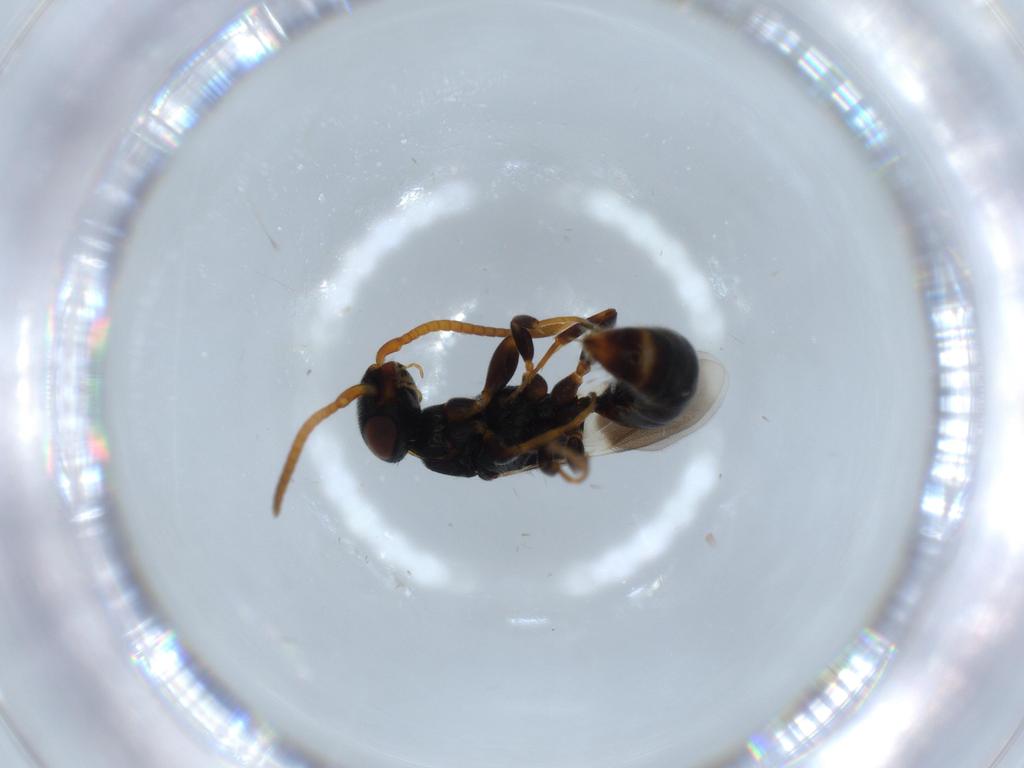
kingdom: Animalia
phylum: Arthropoda
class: Insecta
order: Hymenoptera
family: Bethylidae
